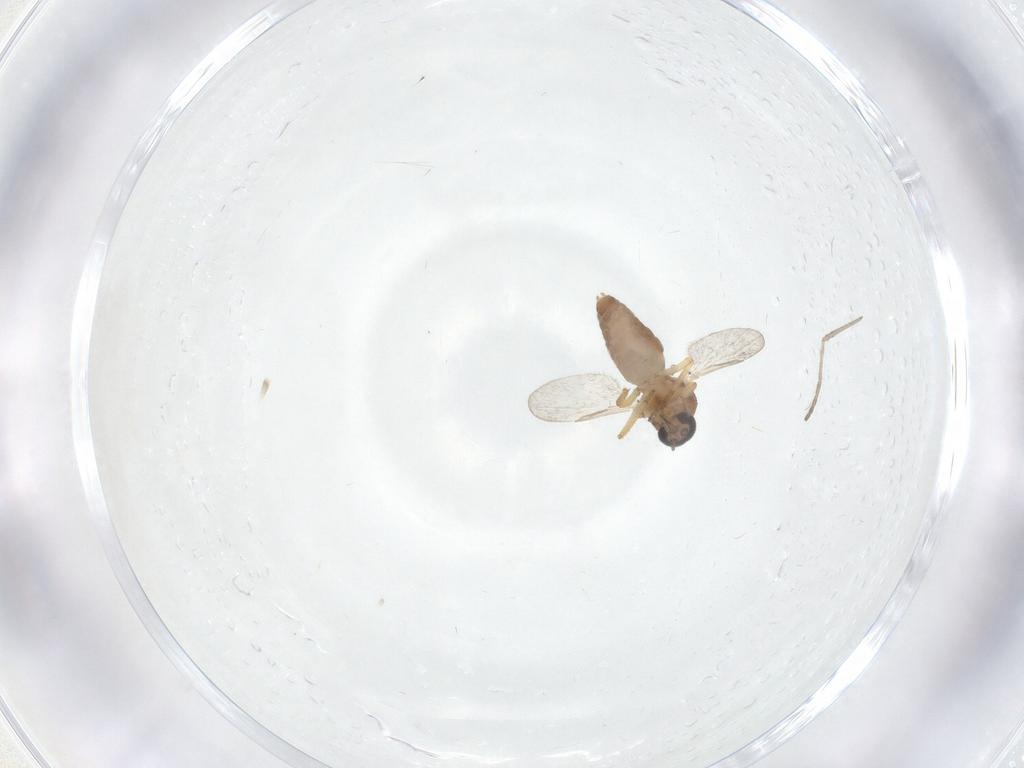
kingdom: Animalia
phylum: Arthropoda
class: Insecta
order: Diptera
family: Ceratopogonidae
